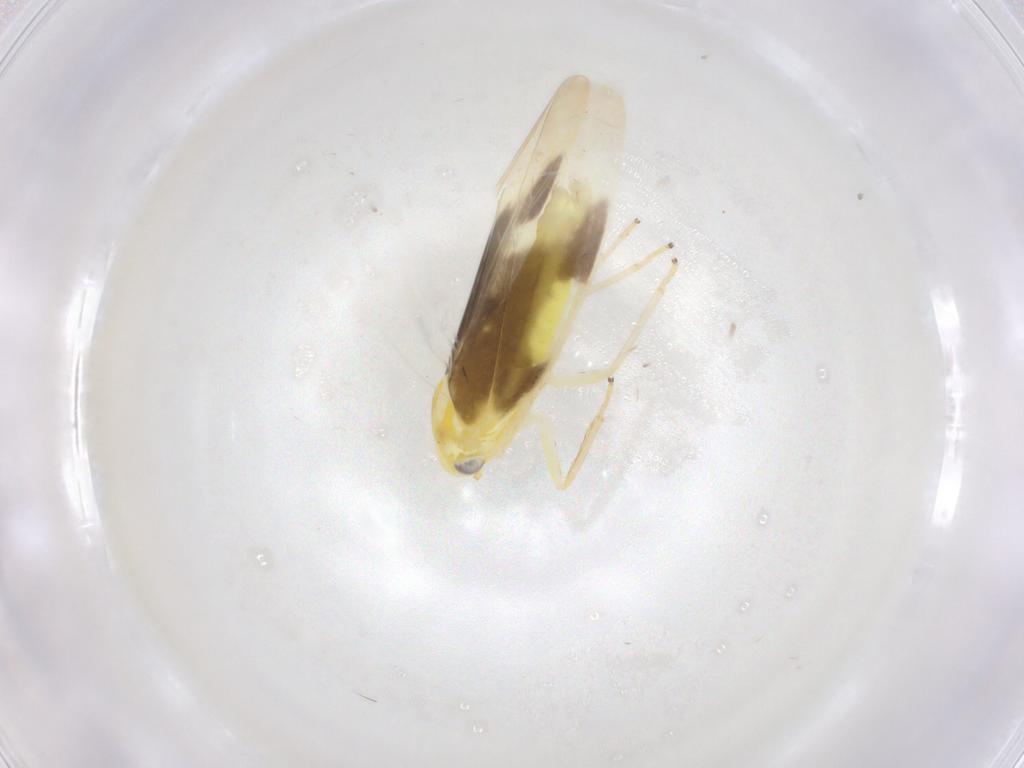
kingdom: Animalia
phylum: Arthropoda
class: Insecta
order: Hemiptera
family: Cicadellidae
